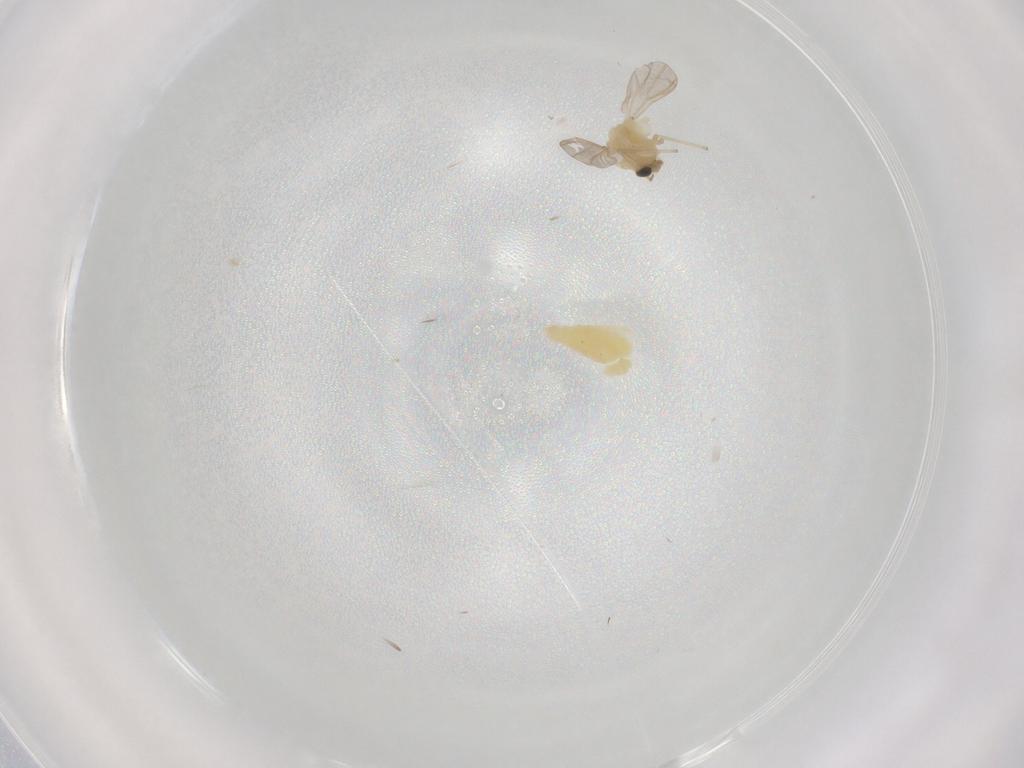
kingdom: Animalia
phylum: Arthropoda
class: Insecta
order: Diptera
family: Chironomidae
